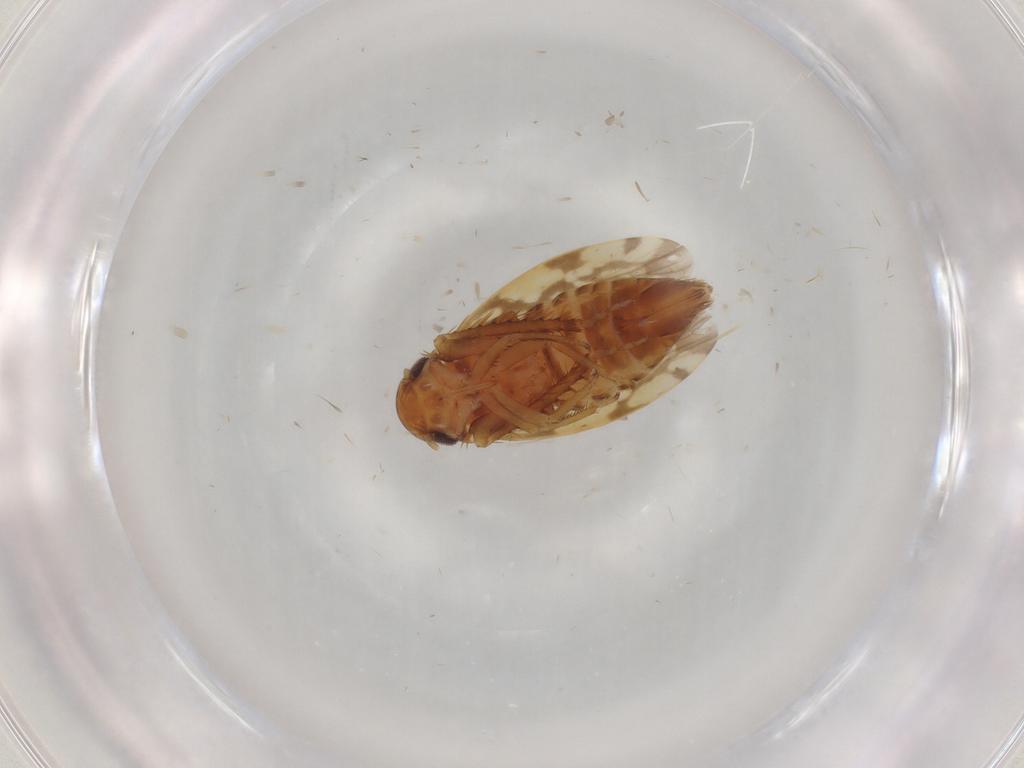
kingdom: Animalia
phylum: Arthropoda
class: Insecta
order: Hemiptera
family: Cicadellidae
